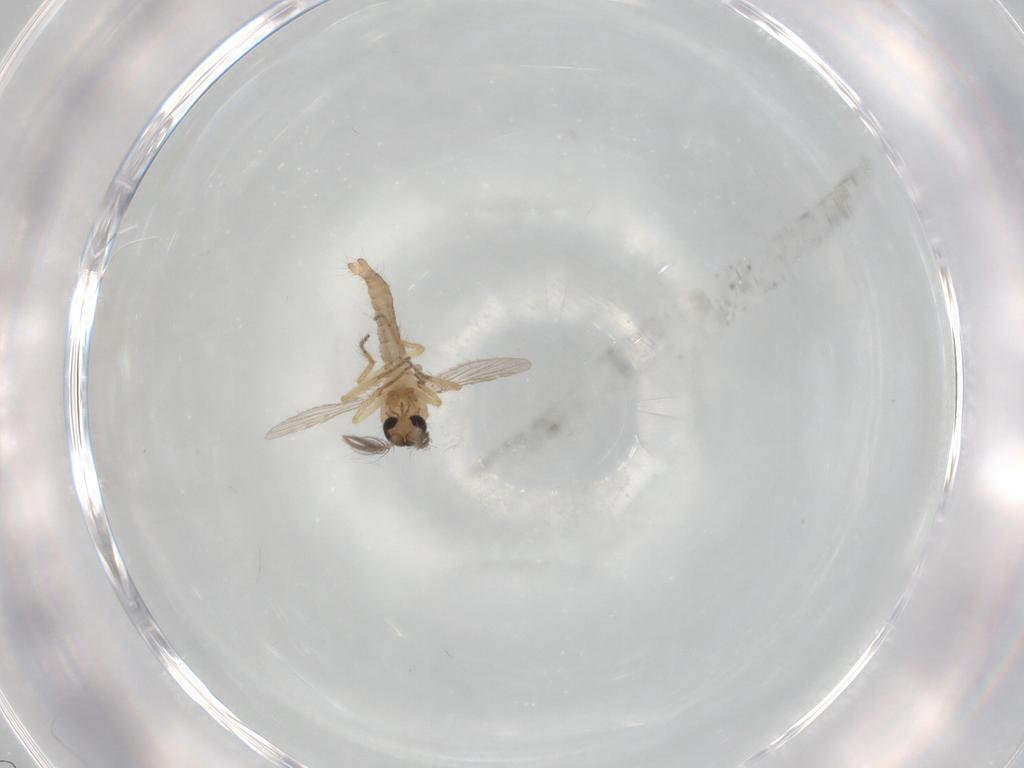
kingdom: Animalia
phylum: Arthropoda
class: Insecta
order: Diptera
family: Ceratopogonidae
